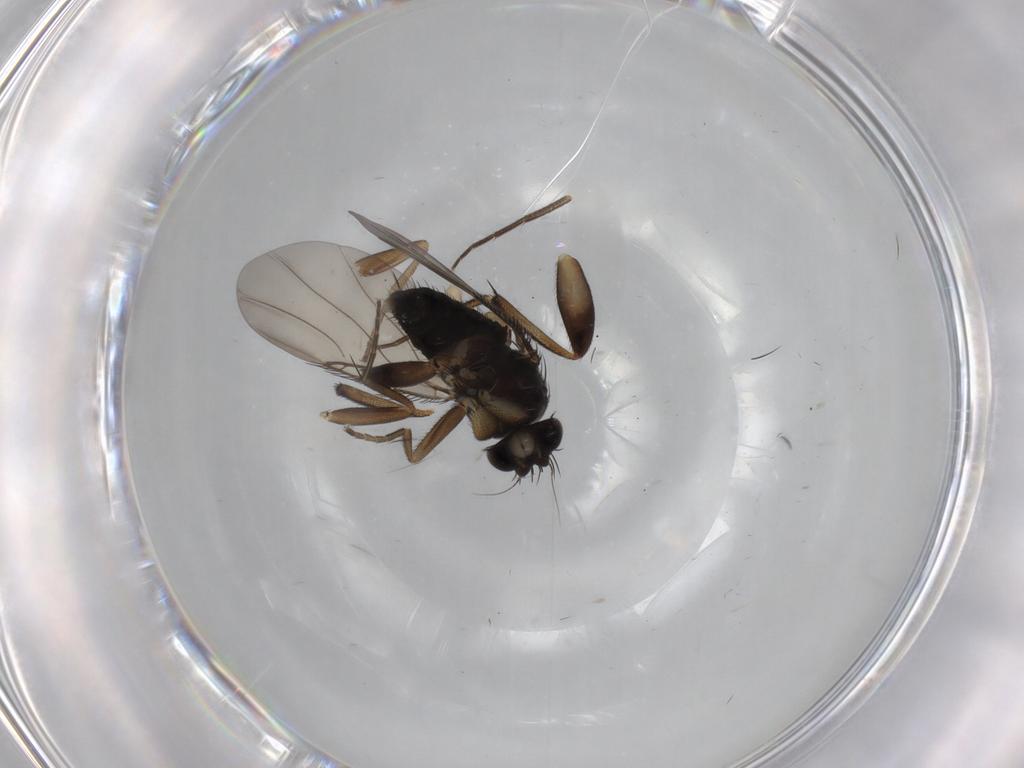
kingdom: Animalia
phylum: Arthropoda
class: Insecta
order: Diptera
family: Phoridae
